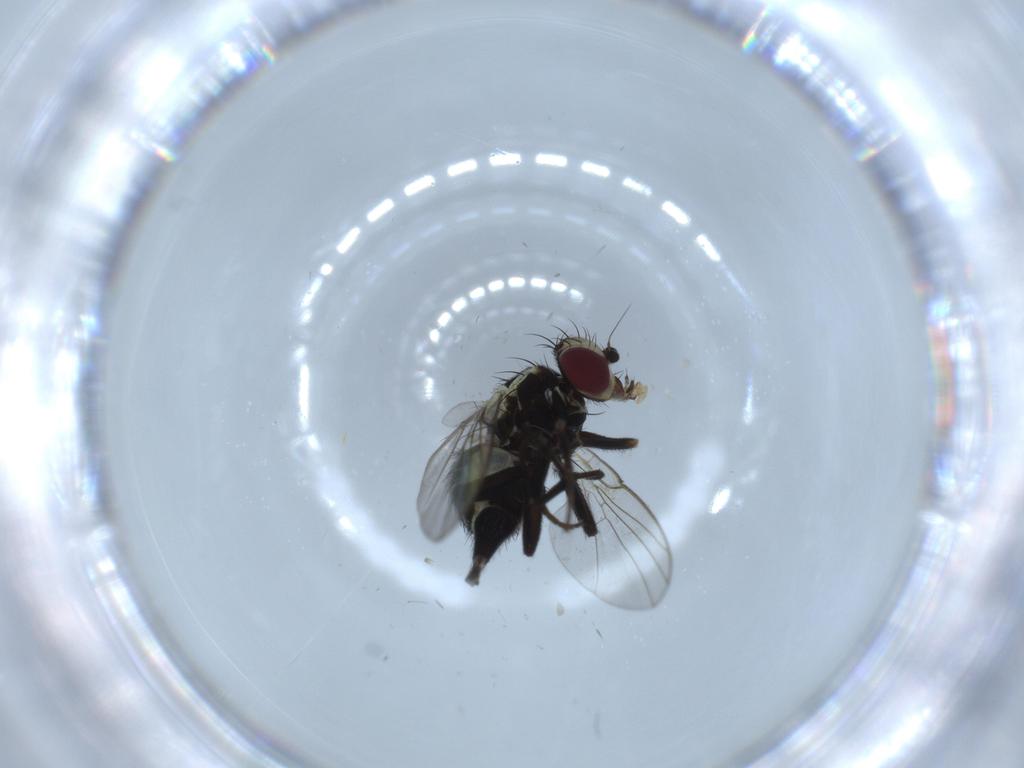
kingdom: Animalia
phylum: Arthropoda
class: Insecta
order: Diptera
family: Agromyzidae
